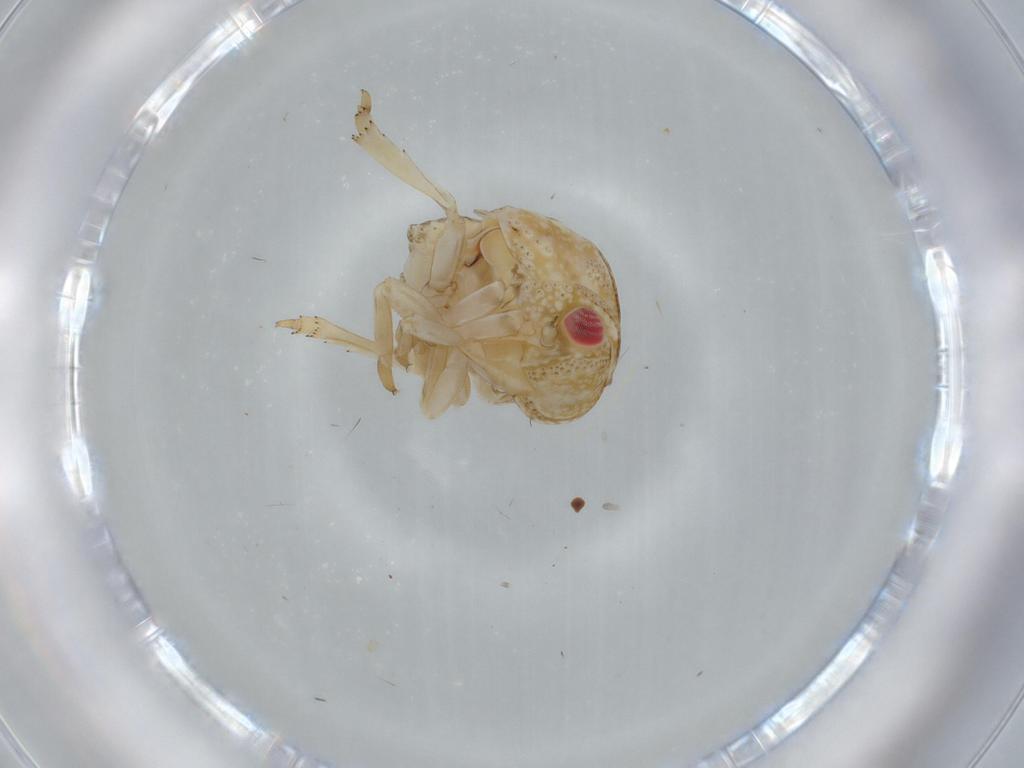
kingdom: Animalia
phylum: Arthropoda
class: Insecta
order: Hemiptera
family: Acanaloniidae
